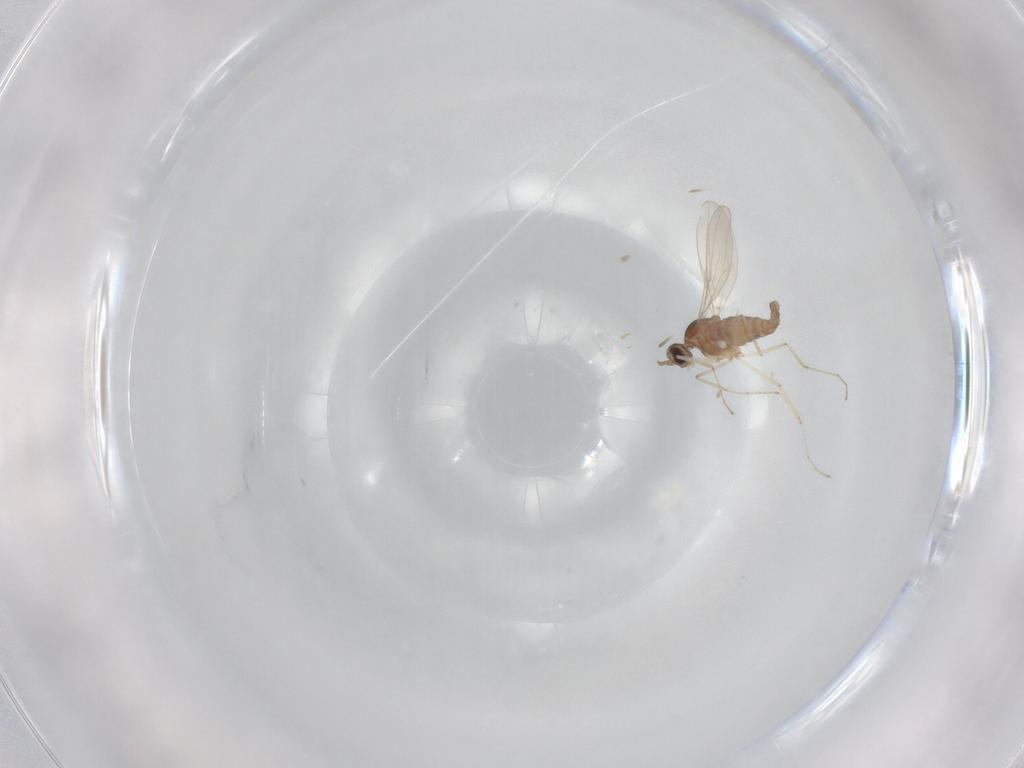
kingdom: Animalia
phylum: Arthropoda
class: Insecta
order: Diptera
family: Cecidomyiidae
